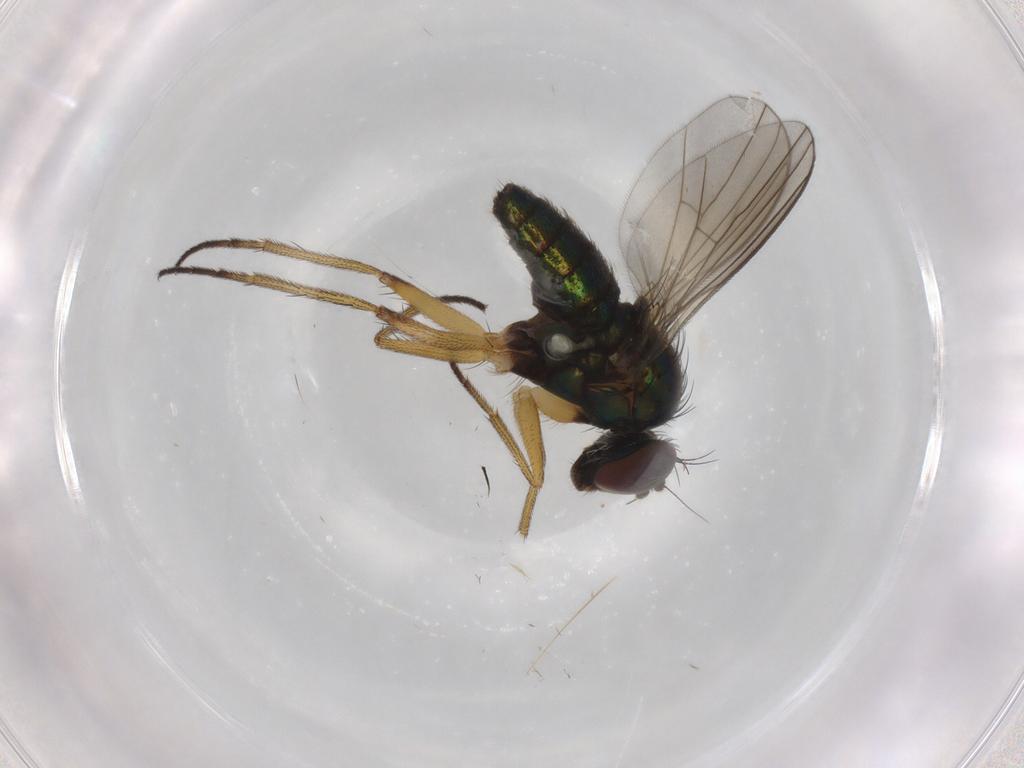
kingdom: Animalia
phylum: Arthropoda
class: Insecta
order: Diptera
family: Dolichopodidae
